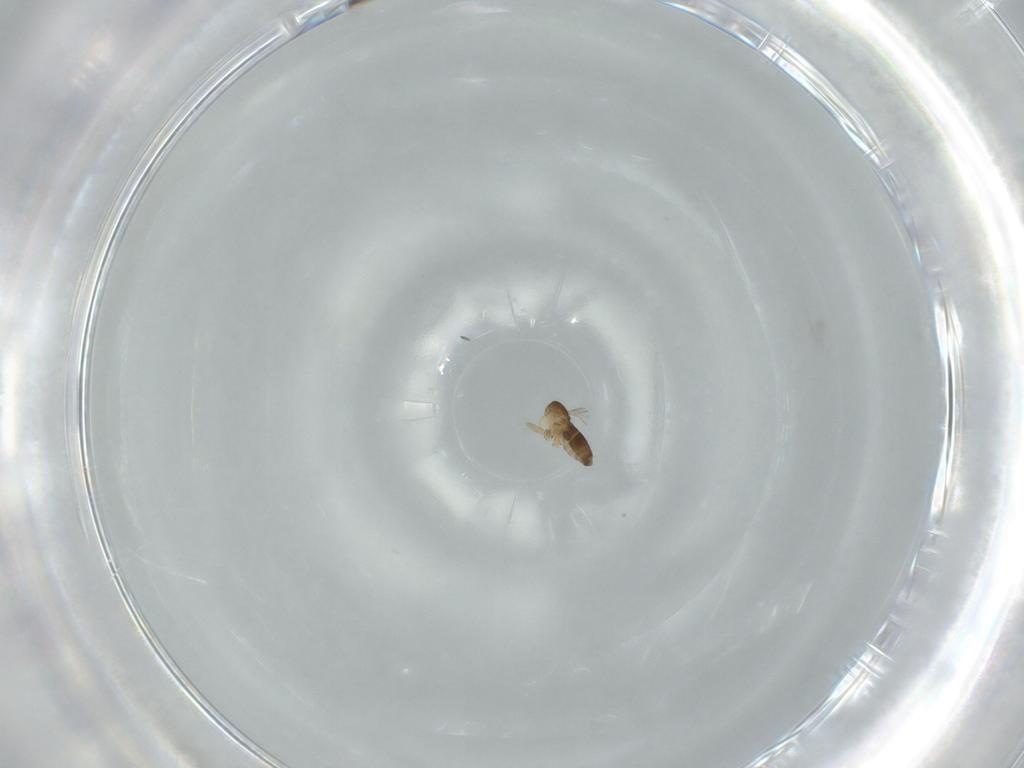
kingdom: Animalia
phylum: Arthropoda
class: Insecta
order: Diptera
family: Phoridae
